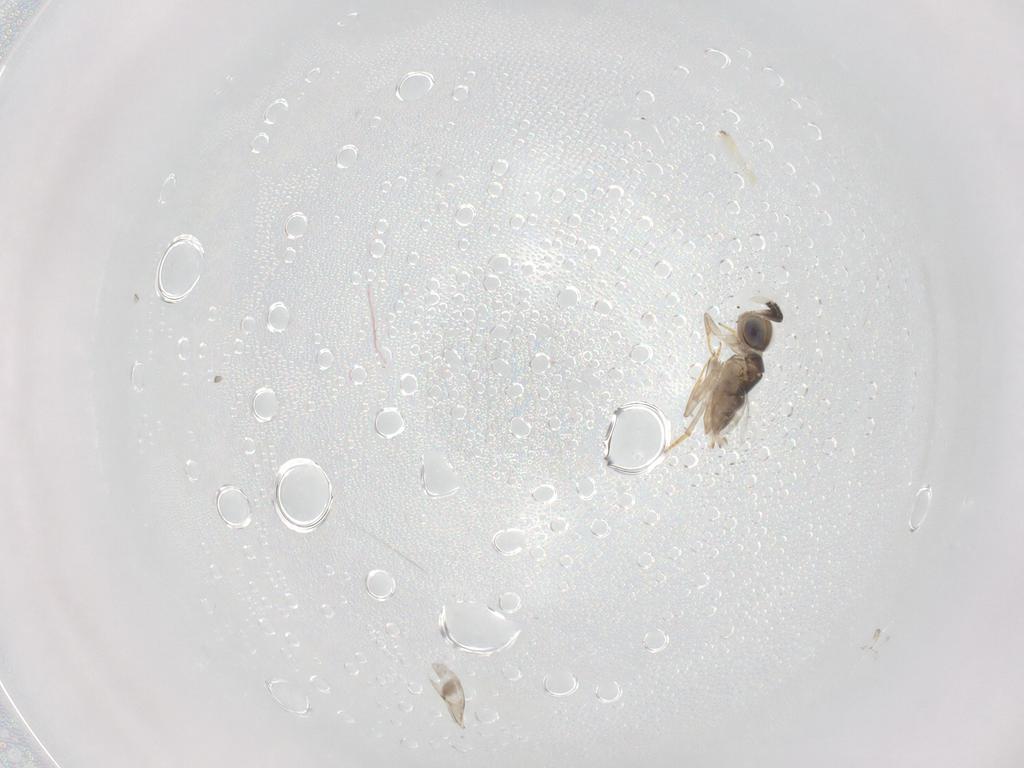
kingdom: Animalia
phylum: Arthropoda
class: Insecta
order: Hymenoptera
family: Encyrtidae
